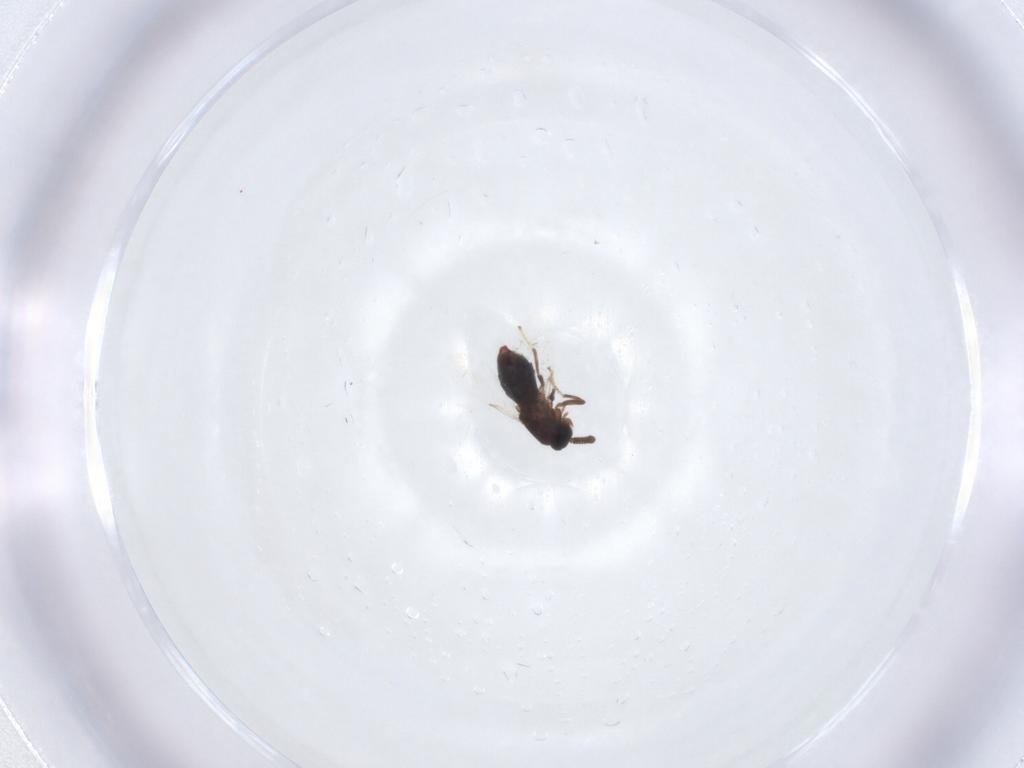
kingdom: Animalia
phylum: Arthropoda
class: Insecta
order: Diptera
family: Scatopsidae
